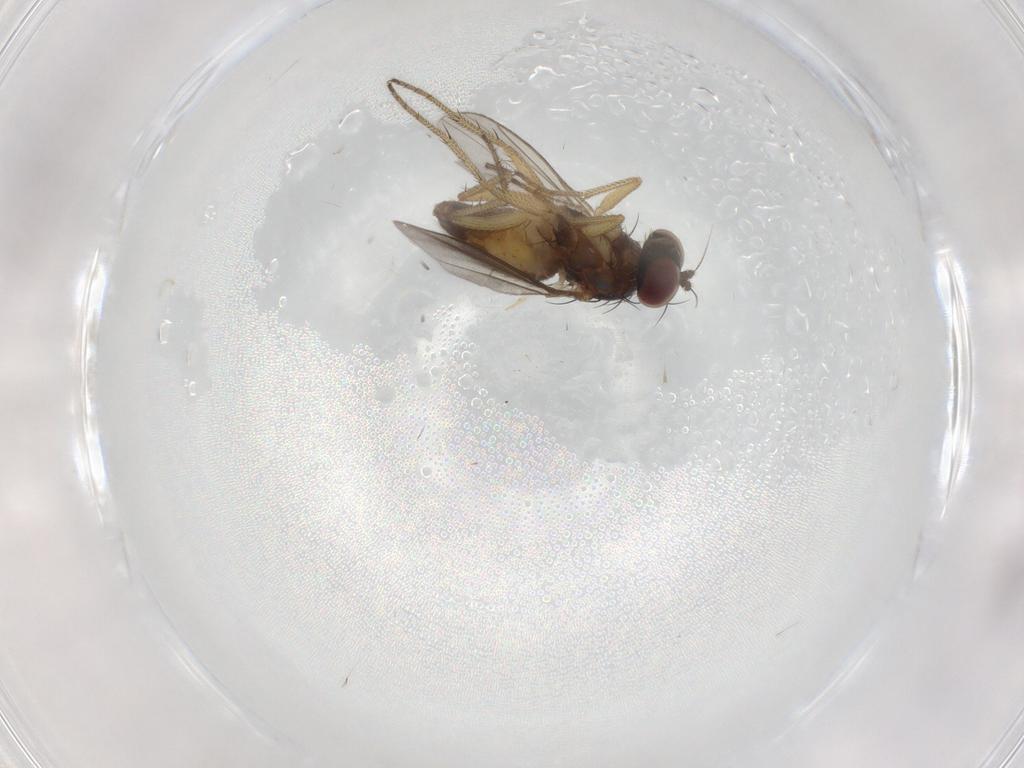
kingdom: Animalia
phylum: Arthropoda
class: Insecta
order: Diptera
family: Dolichopodidae
